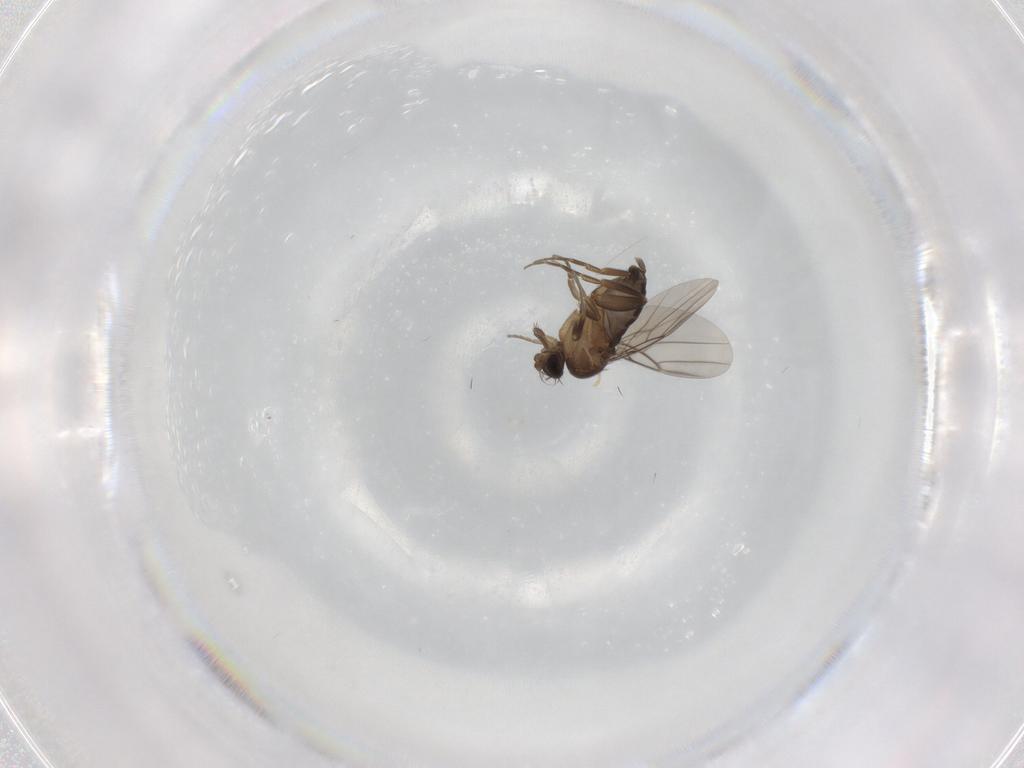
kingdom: Animalia
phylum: Arthropoda
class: Insecta
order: Diptera
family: Phoridae
